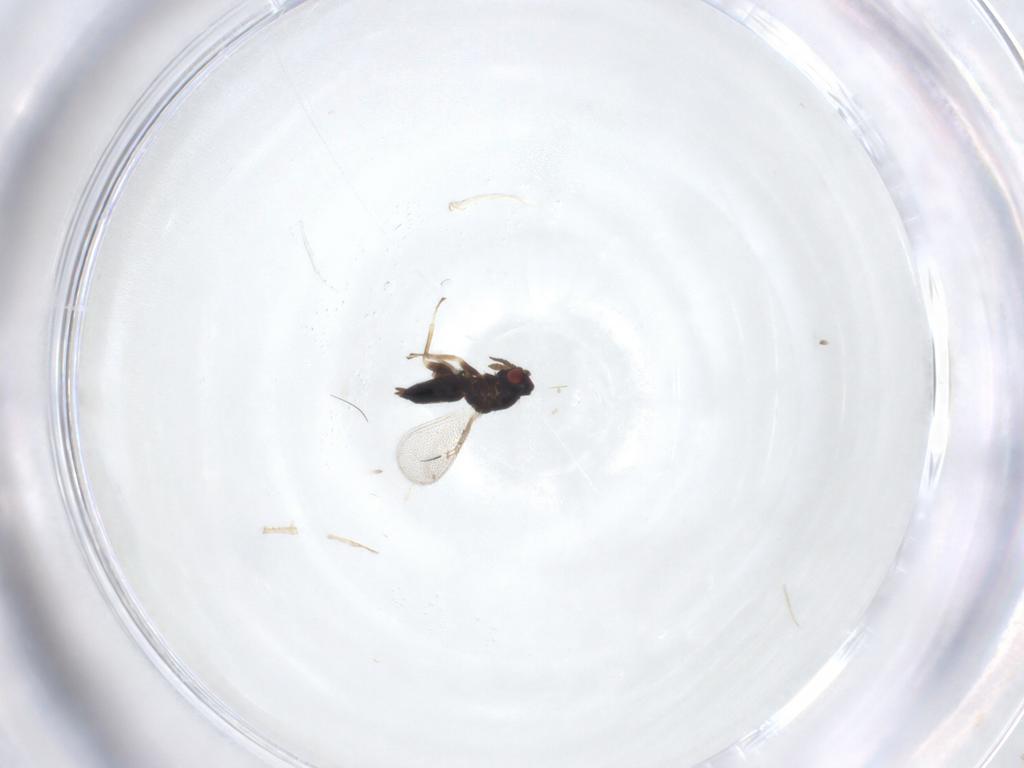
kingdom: Animalia
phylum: Arthropoda
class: Insecta
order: Hymenoptera
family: Eulophidae
